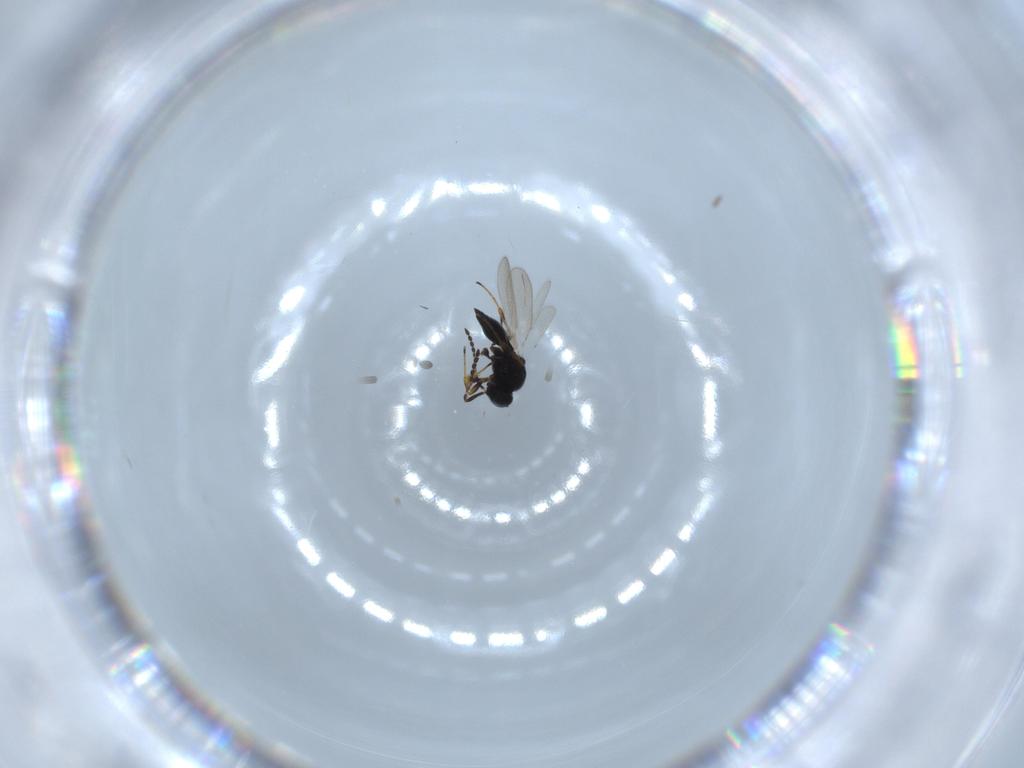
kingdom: Animalia
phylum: Arthropoda
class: Insecta
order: Hymenoptera
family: Platygastridae
